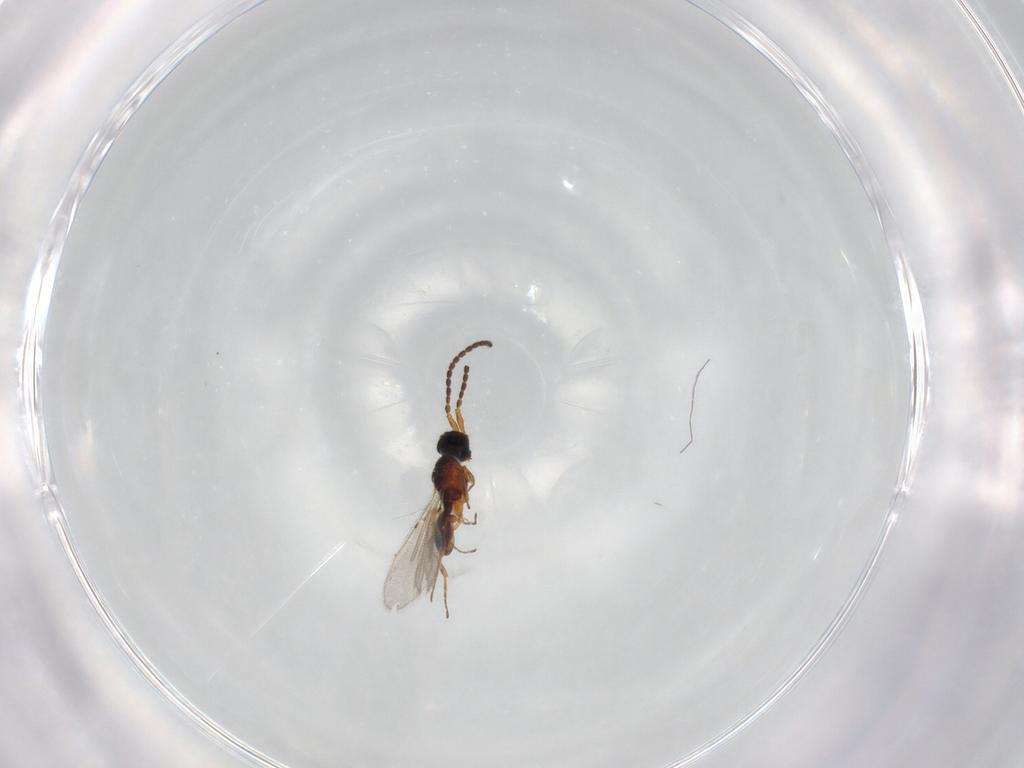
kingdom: Animalia
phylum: Arthropoda
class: Insecta
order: Hymenoptera
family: Diapriidae
